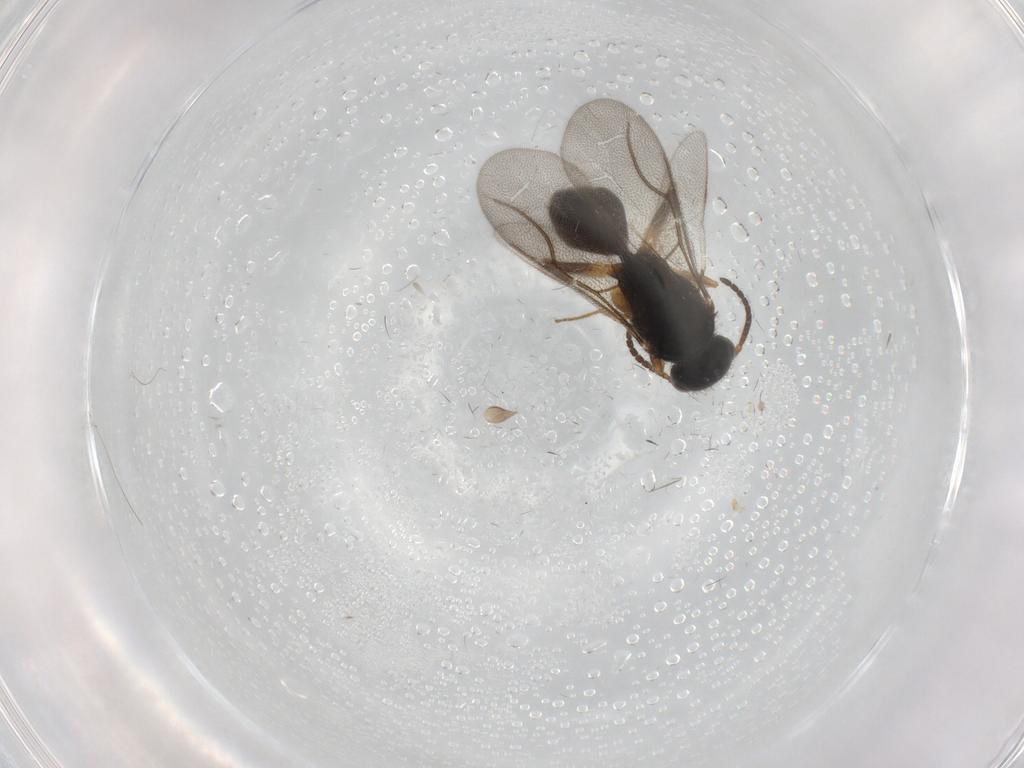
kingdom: Animalia
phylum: Arthropoda
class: Insecta
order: Hymenoptera
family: Bethylidae
